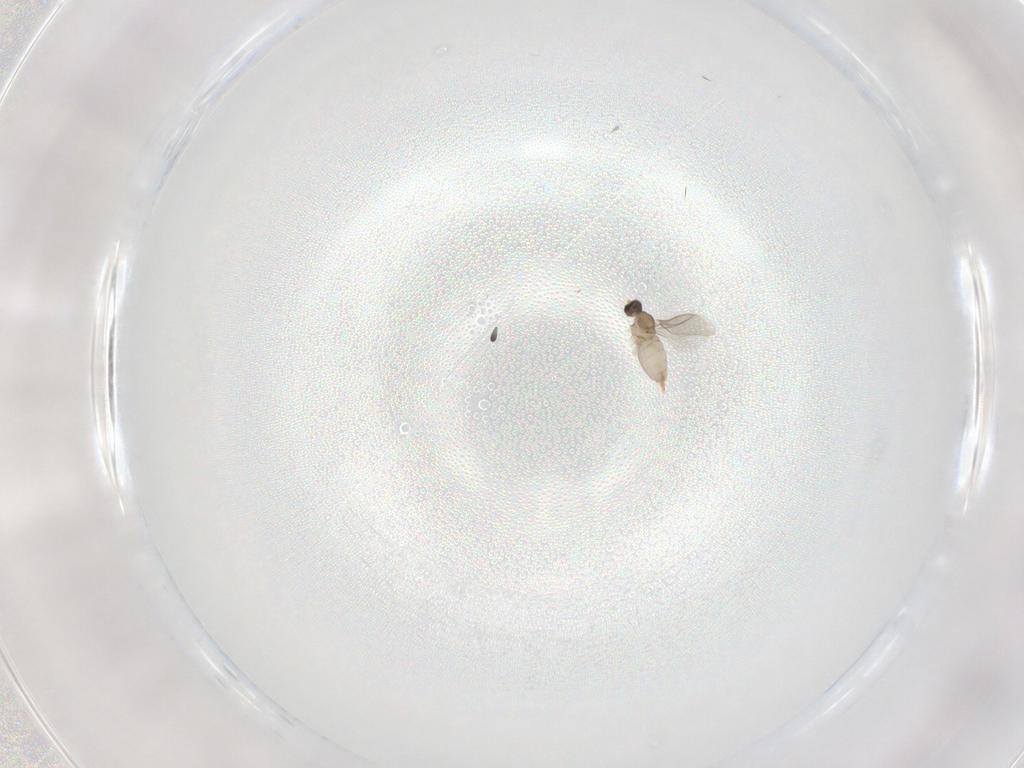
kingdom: Animalia
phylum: Arthropoda
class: Insecta
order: Diptera
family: Cecidomyiidae
